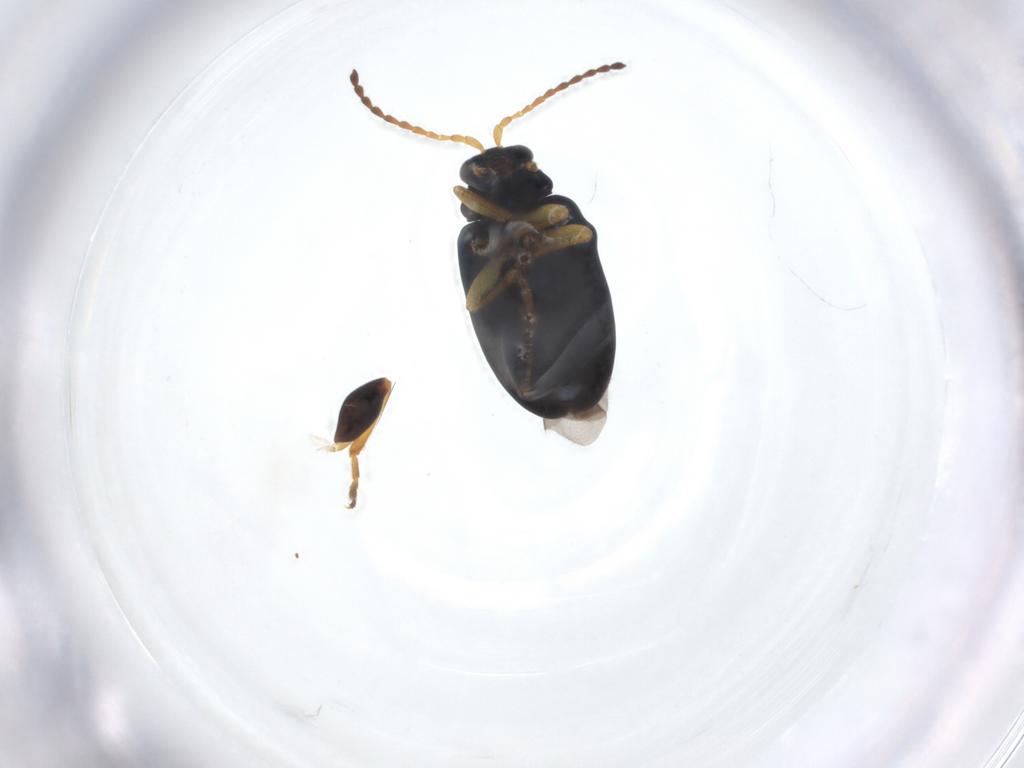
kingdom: Animalia
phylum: Arthropoda
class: Insecta
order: Coleoptera
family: Chrysomelidae
